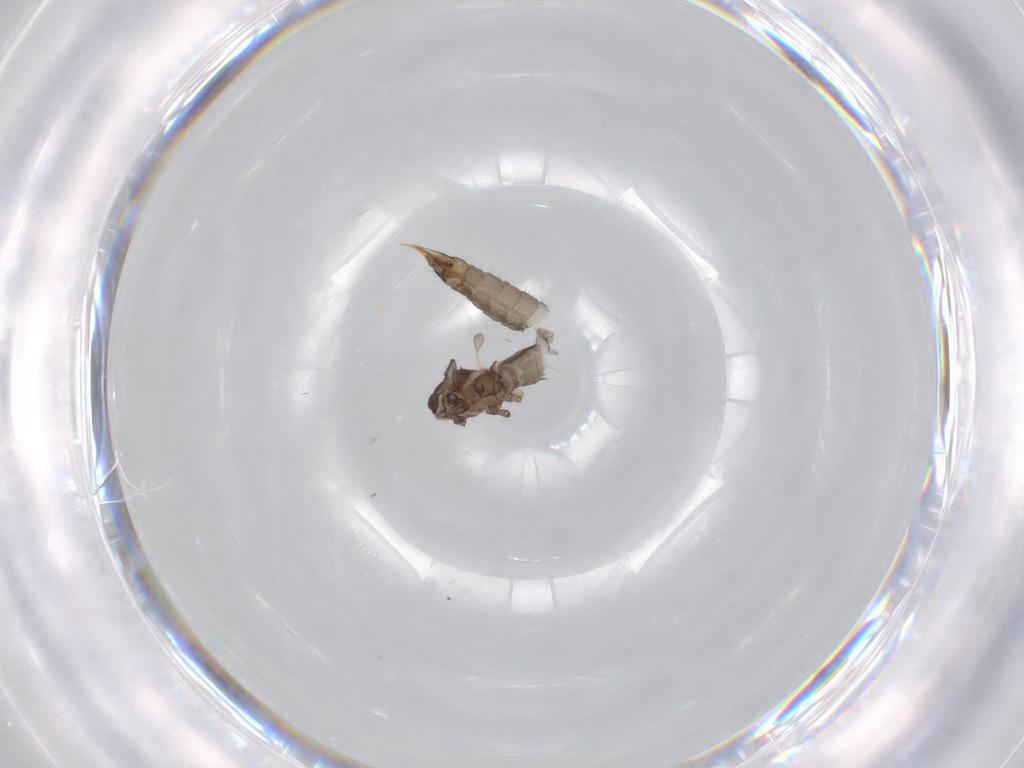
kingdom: Animalia
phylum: Arthropoda
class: Insecta
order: Diptera
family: Limoniidae
